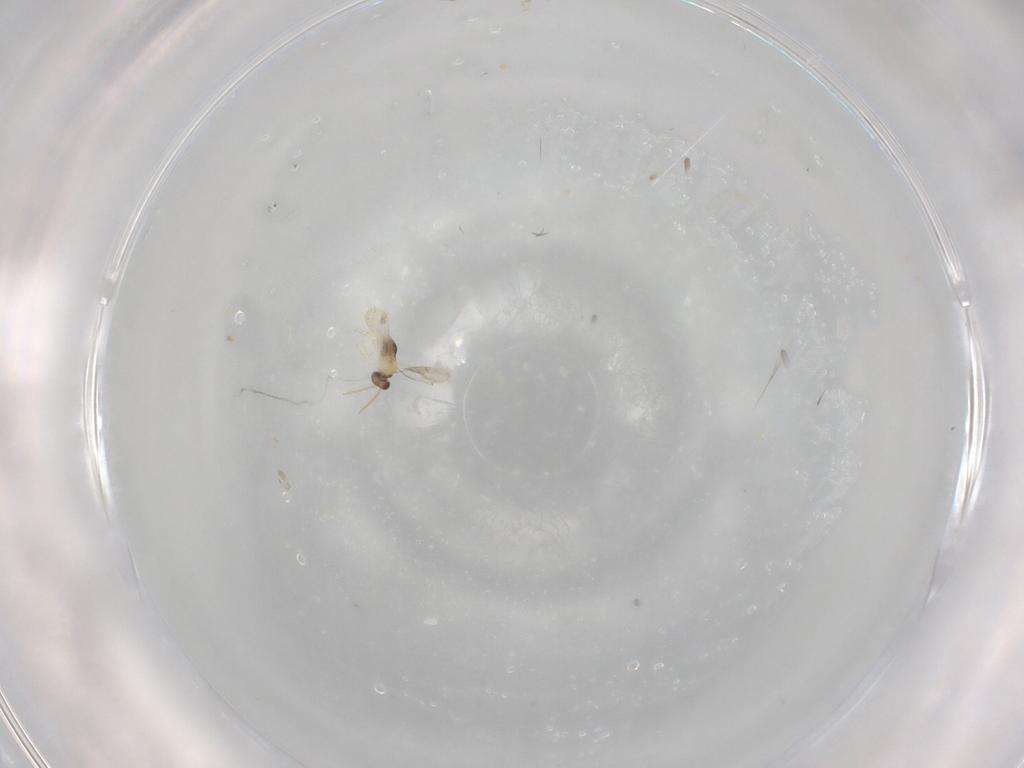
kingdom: Animalia
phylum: Arthropoda
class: Insecta
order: Hymenoptera
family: Aphelinidae
